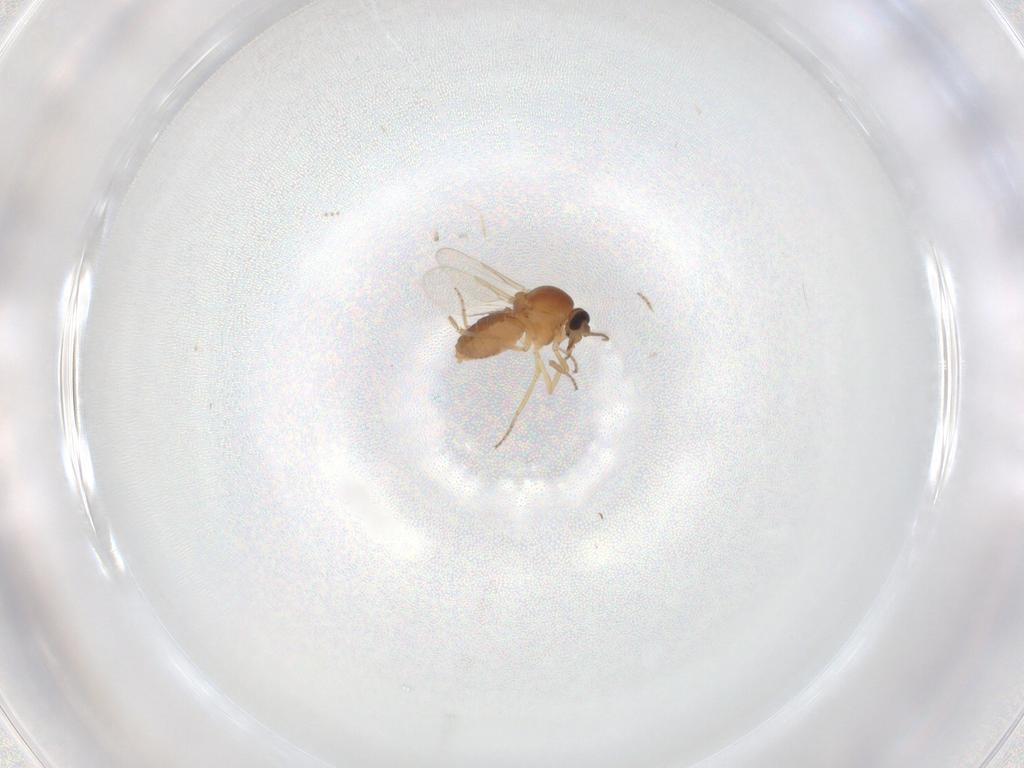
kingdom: Animalia
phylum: Arthropoda
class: Insecta
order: Diptera
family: Ceratopogonidae
